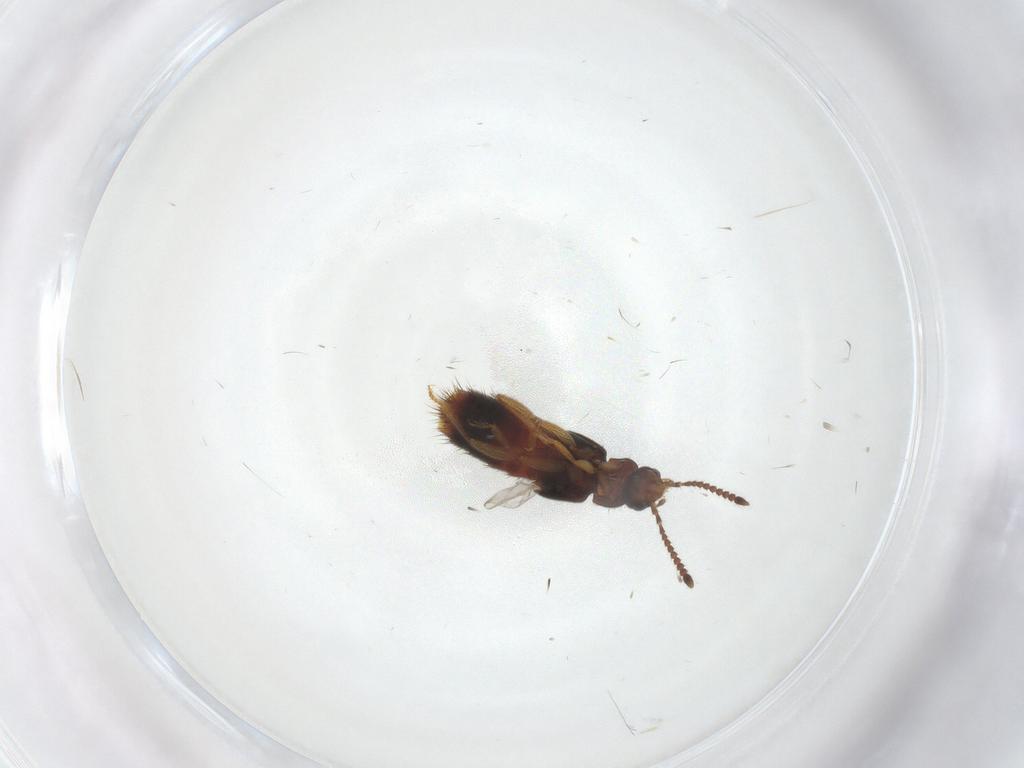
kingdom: Animalia
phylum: Arthropoda
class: Insecta
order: Coleoptera
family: Staphylinidae
